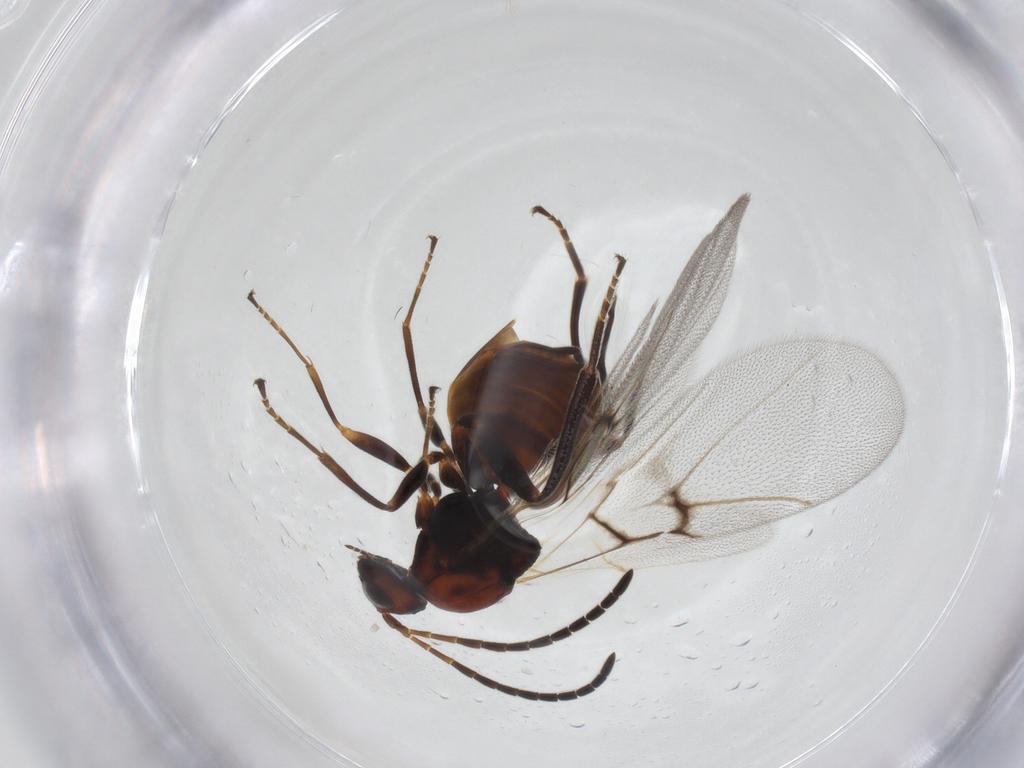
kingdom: Animalia
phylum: Arthropoda
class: Insecta
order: Hymenoptera
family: Cynipidae
